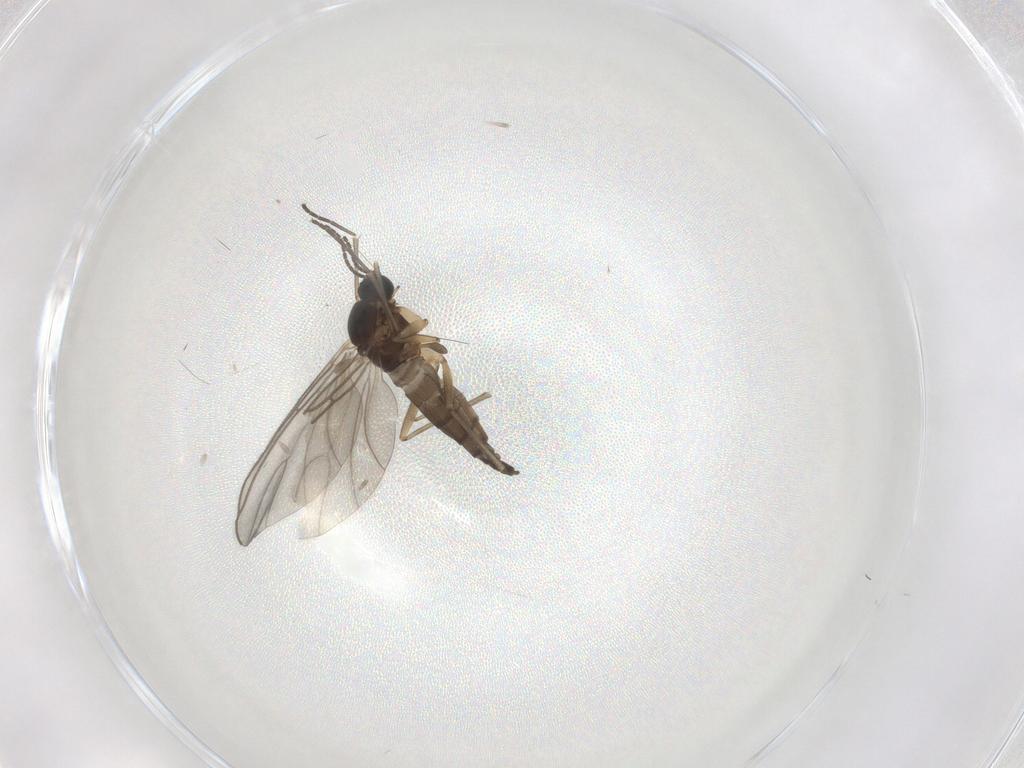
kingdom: Animalia
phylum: Arthropoda
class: Insecta
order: Diptera
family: Sciaridae
